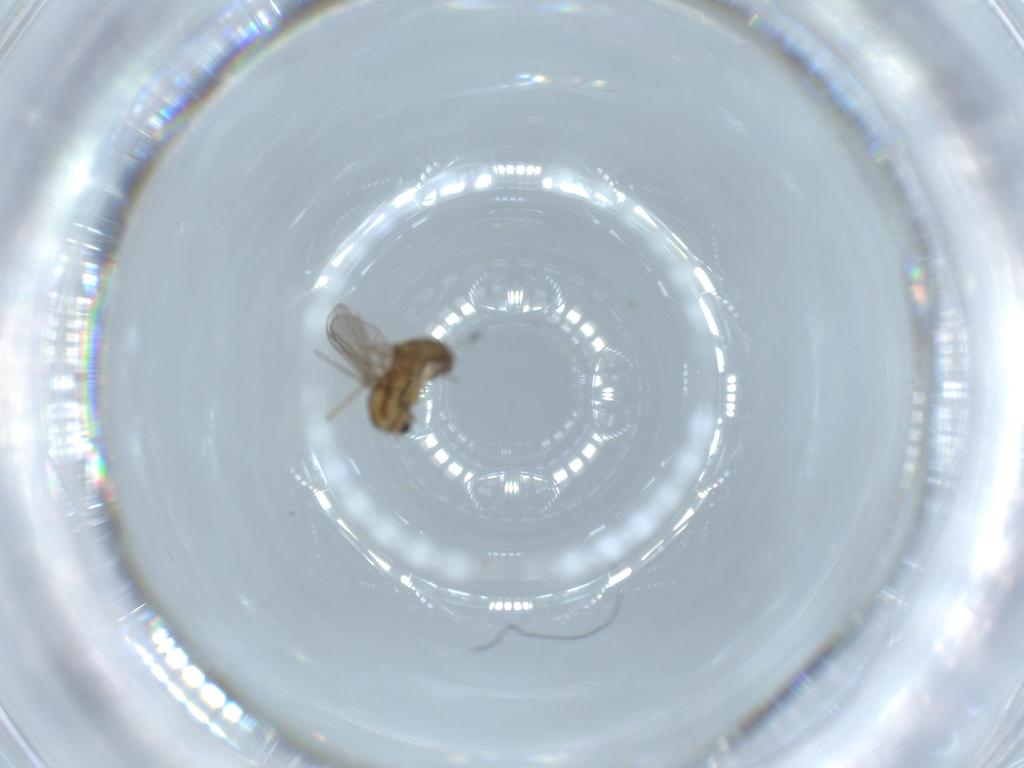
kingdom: Animalia
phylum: Arthropoda
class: Insecta
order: Diptera
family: Chironomidae
